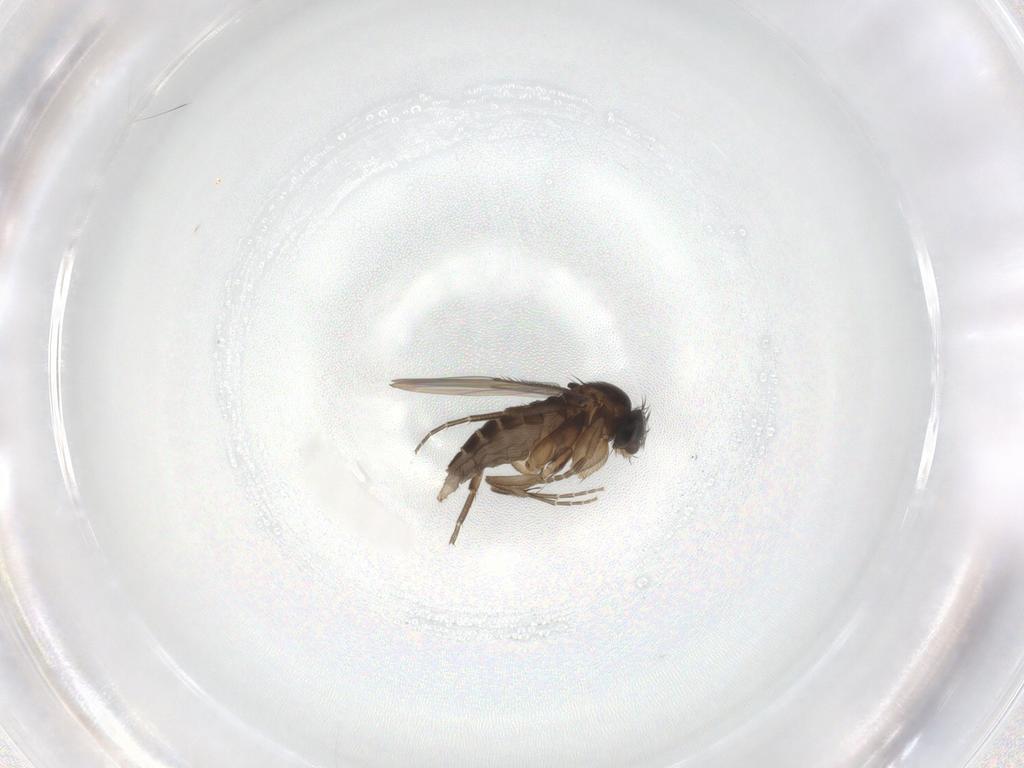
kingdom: Animalia
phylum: Arthropoda
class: Insecta
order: Diptera
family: Phoridae
